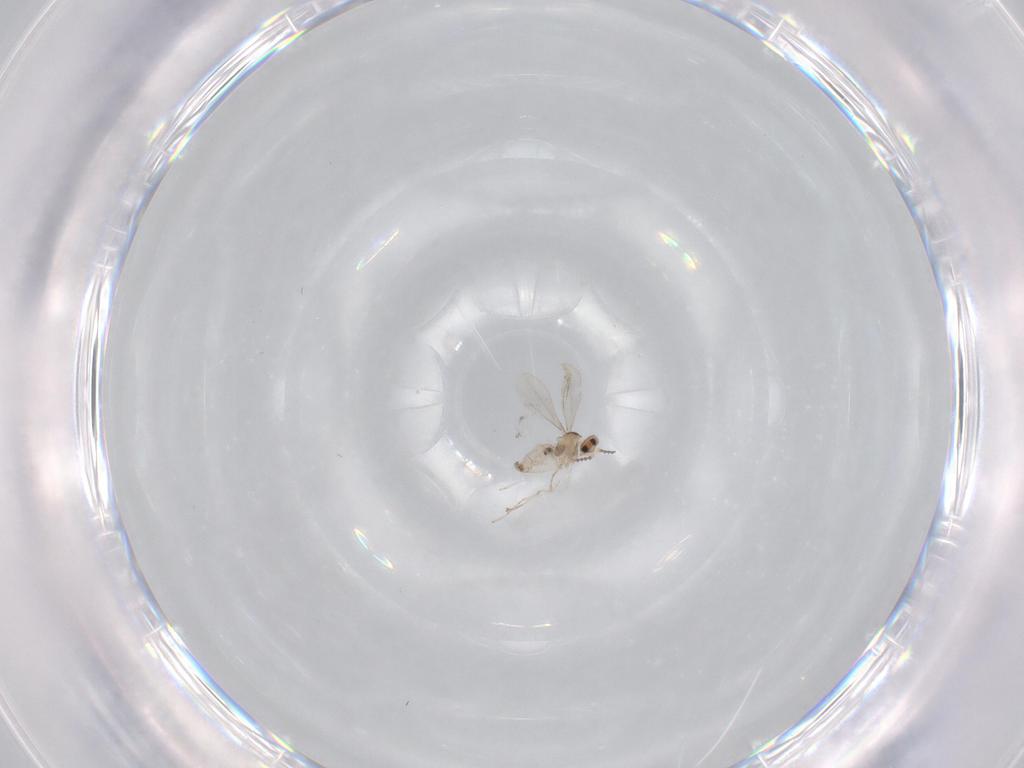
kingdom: Animalia
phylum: Arthropoda
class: Insecta
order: Diptera
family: Cecidomyiidae
